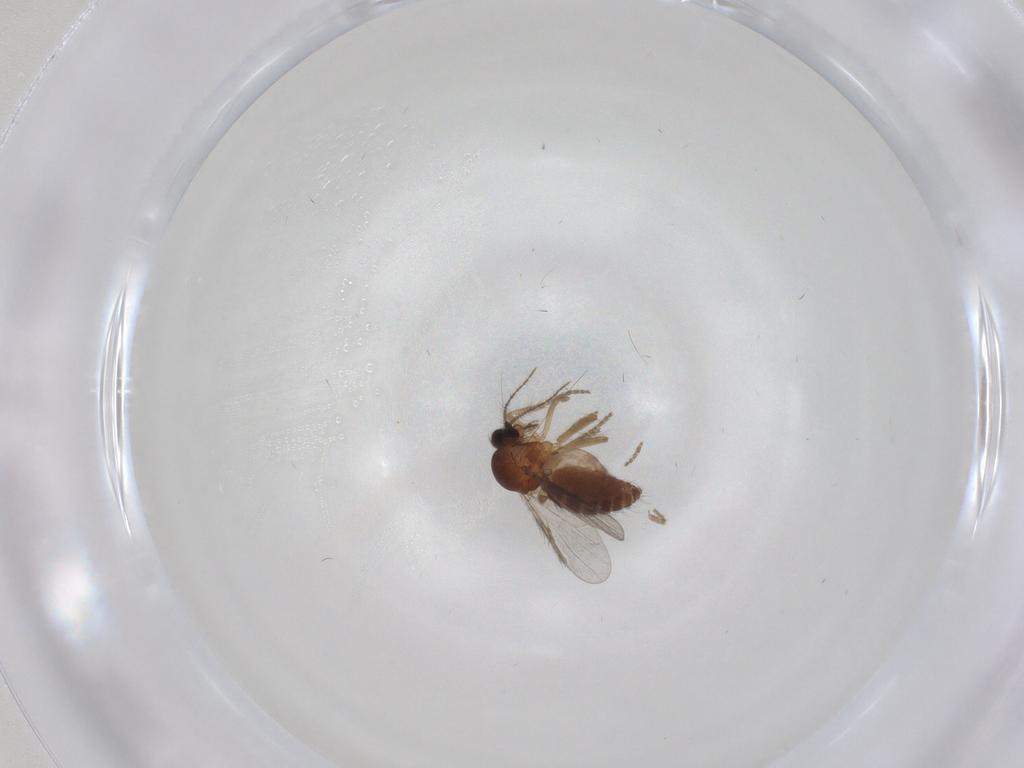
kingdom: Animalia
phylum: Arthropoda
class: Insecta
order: Diptera
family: Ceratopogonidae
